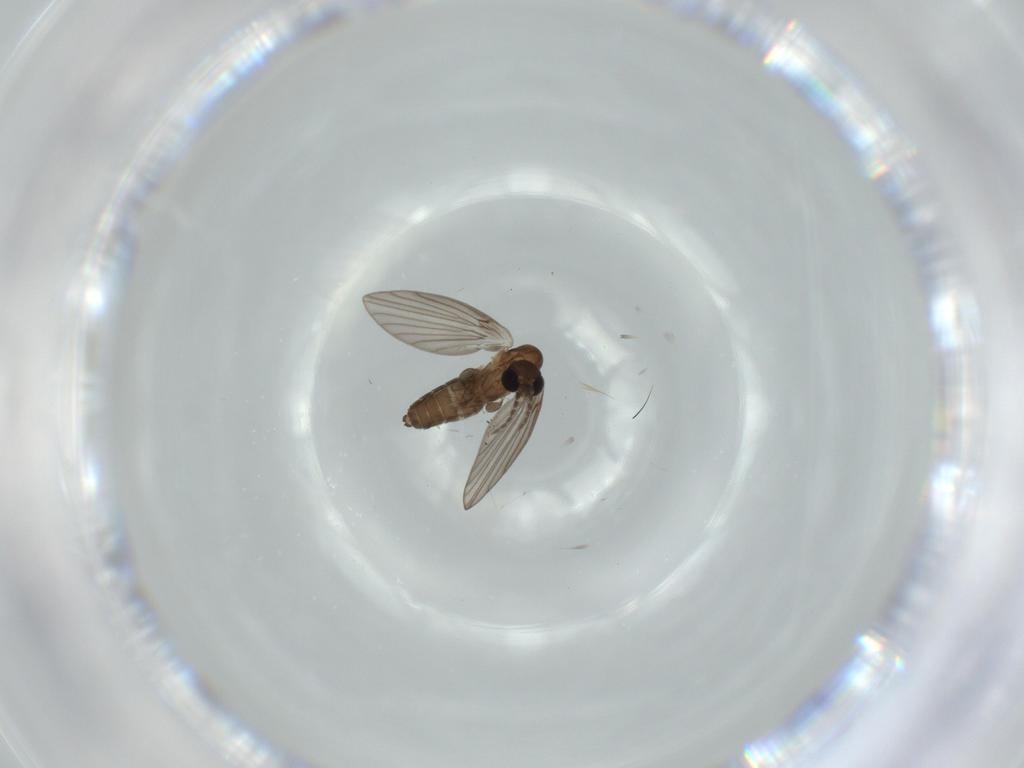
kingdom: Animalia
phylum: Arthropoda
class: Insecta
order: Diptera
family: Psychodidae
